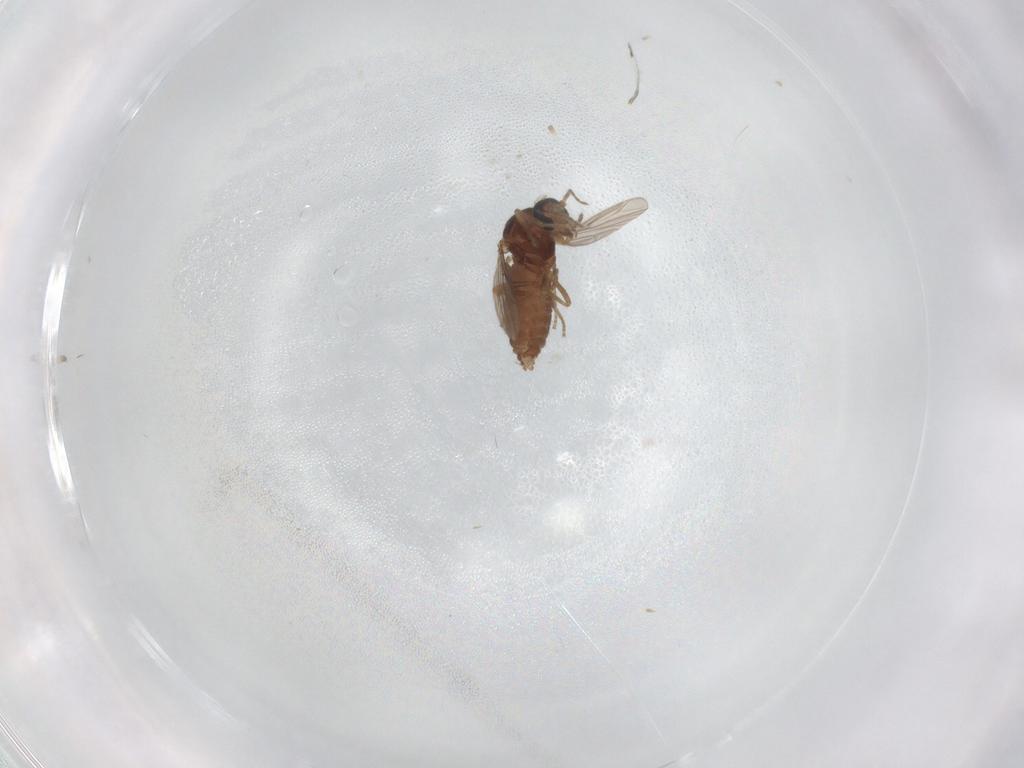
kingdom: Animalia
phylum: Arthropoda
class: Insecta
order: Diptera
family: Ceratopogonidae
